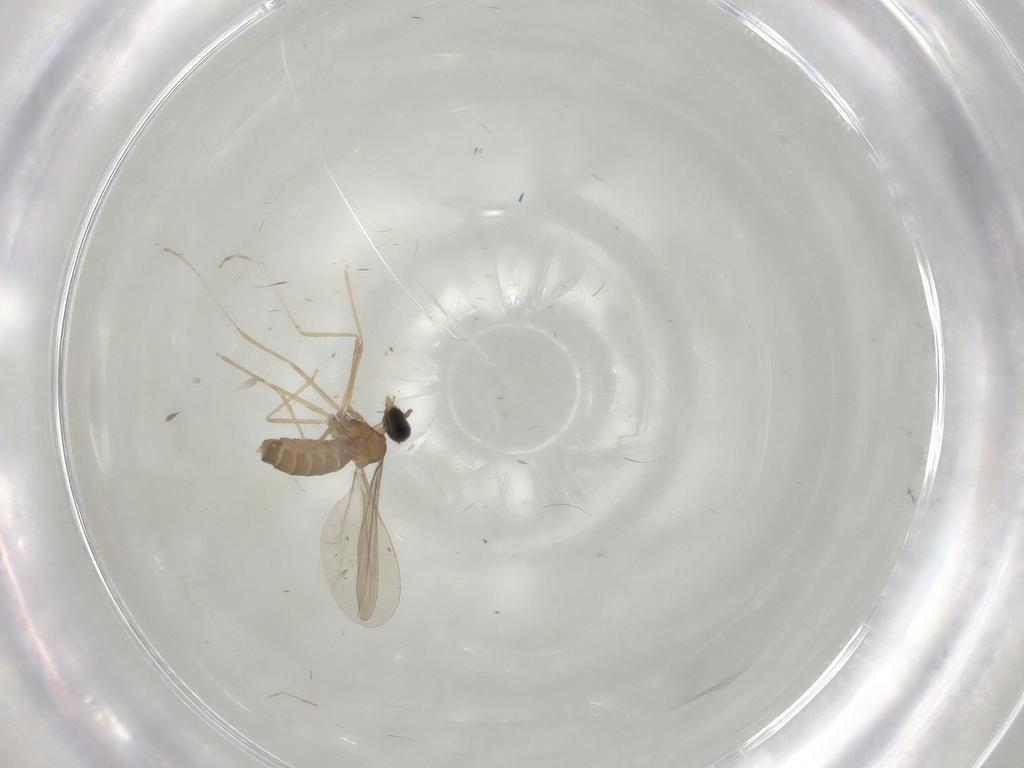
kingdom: Animalia
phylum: Arthropoda
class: Insecta
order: Diptera
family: Cecidomyiidae
